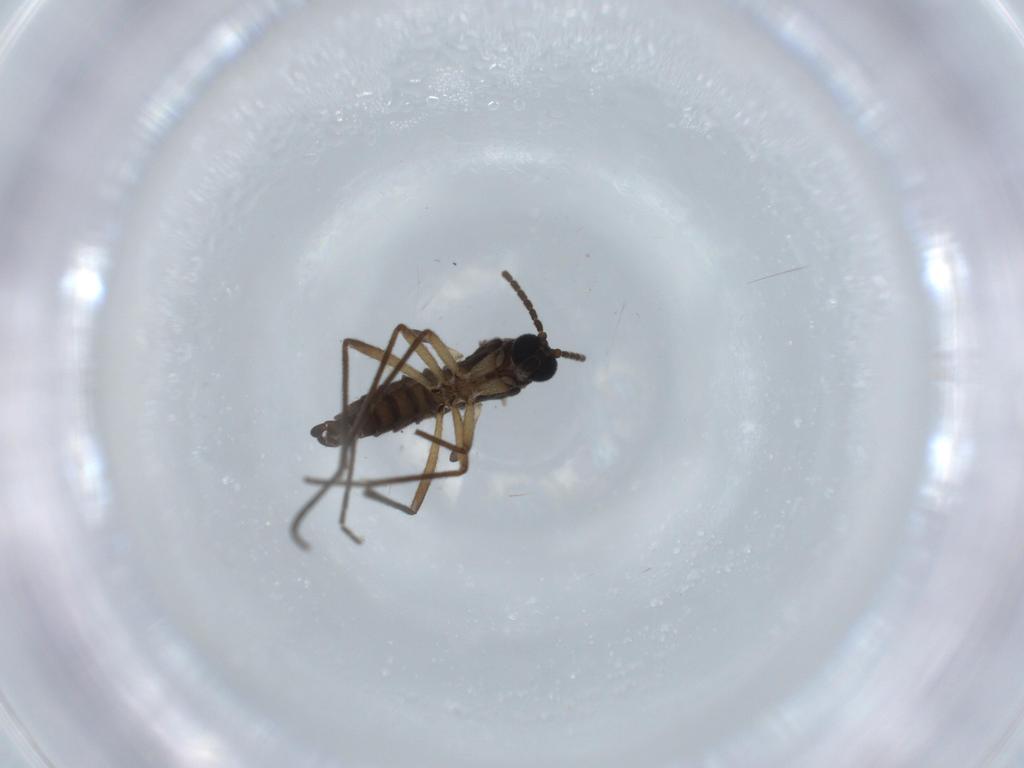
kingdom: Animalia
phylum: Arthropoda
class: Insecta
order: Diptera
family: Sciaridae
